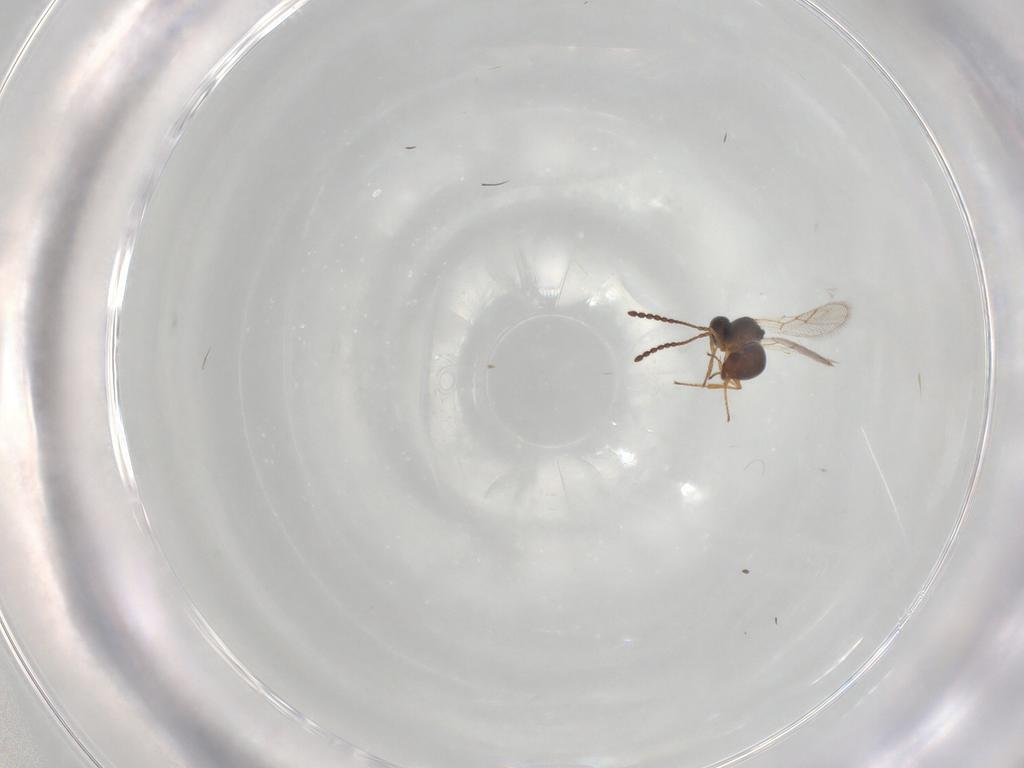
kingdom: Animalia
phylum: Arthropoda
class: Insecta
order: Hymenoptera
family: Figitidae
